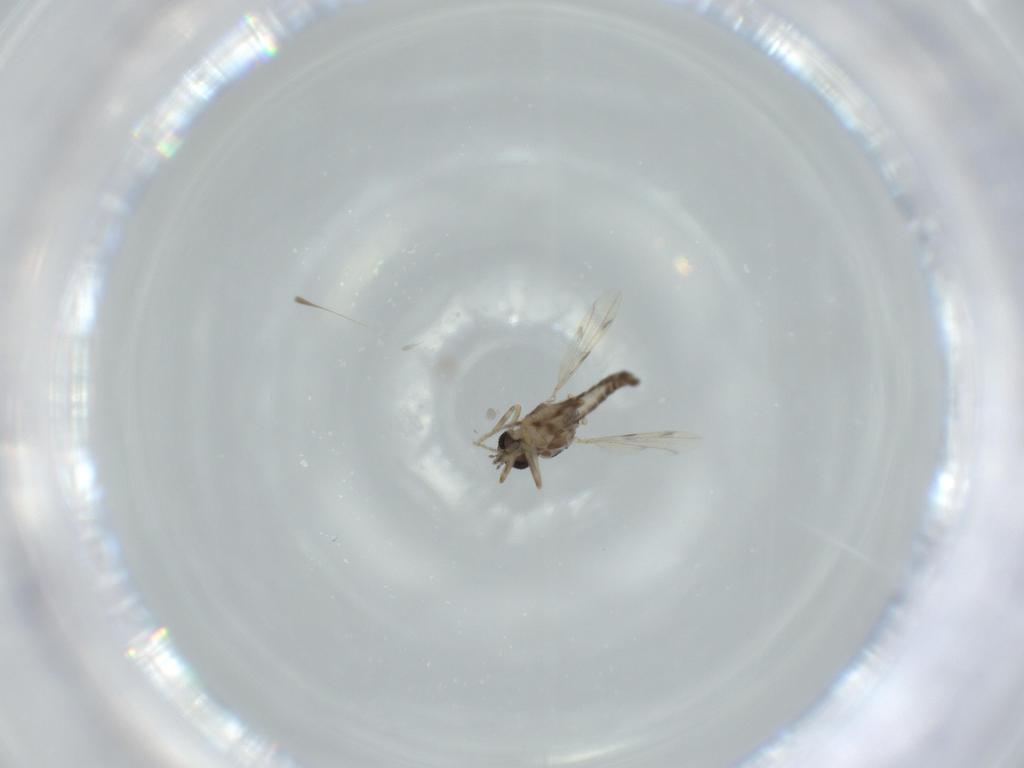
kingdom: Animalia
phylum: Arthropoda
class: Insecta
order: Diptera
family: Ceratopogonidae
